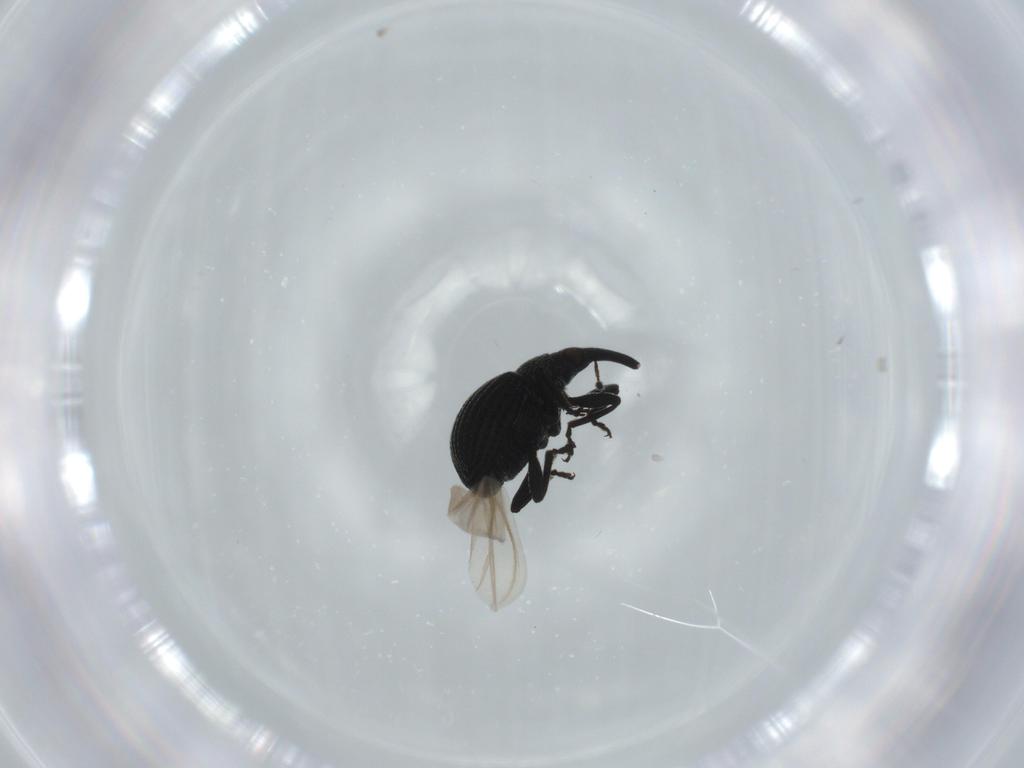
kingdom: Animalia
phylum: Arthropoda
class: Insecta
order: Coleoptera
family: Brentidae
